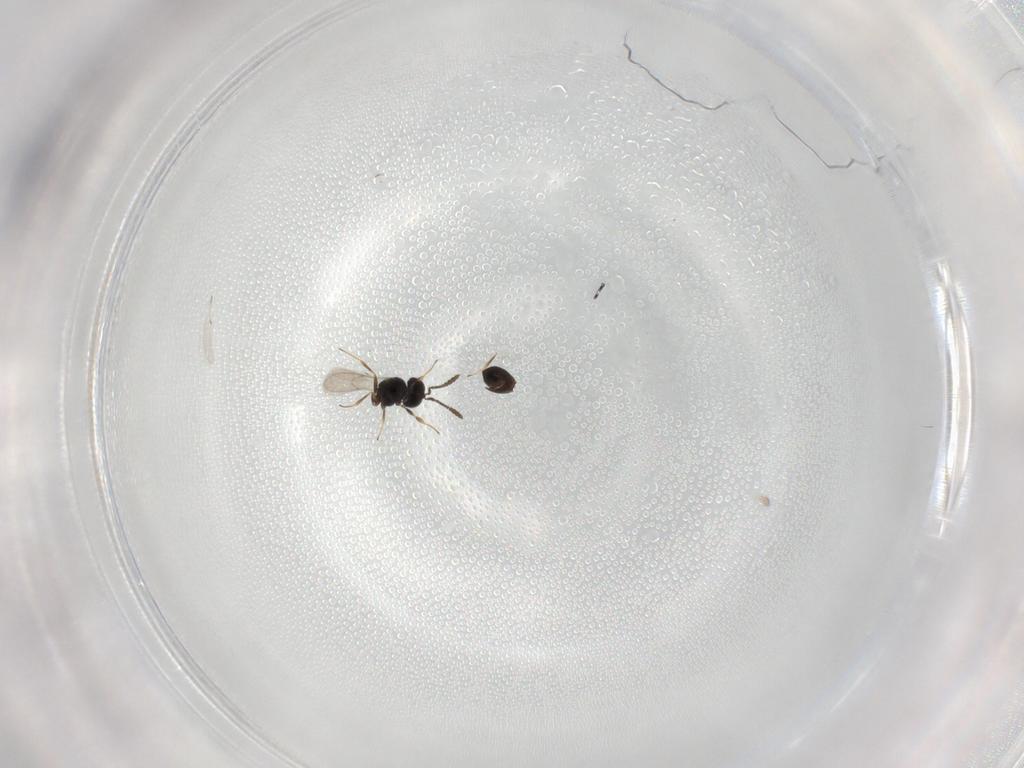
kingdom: Animalia
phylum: Arthropoda
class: Insecta
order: Hymenoptera
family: Scelionidae
